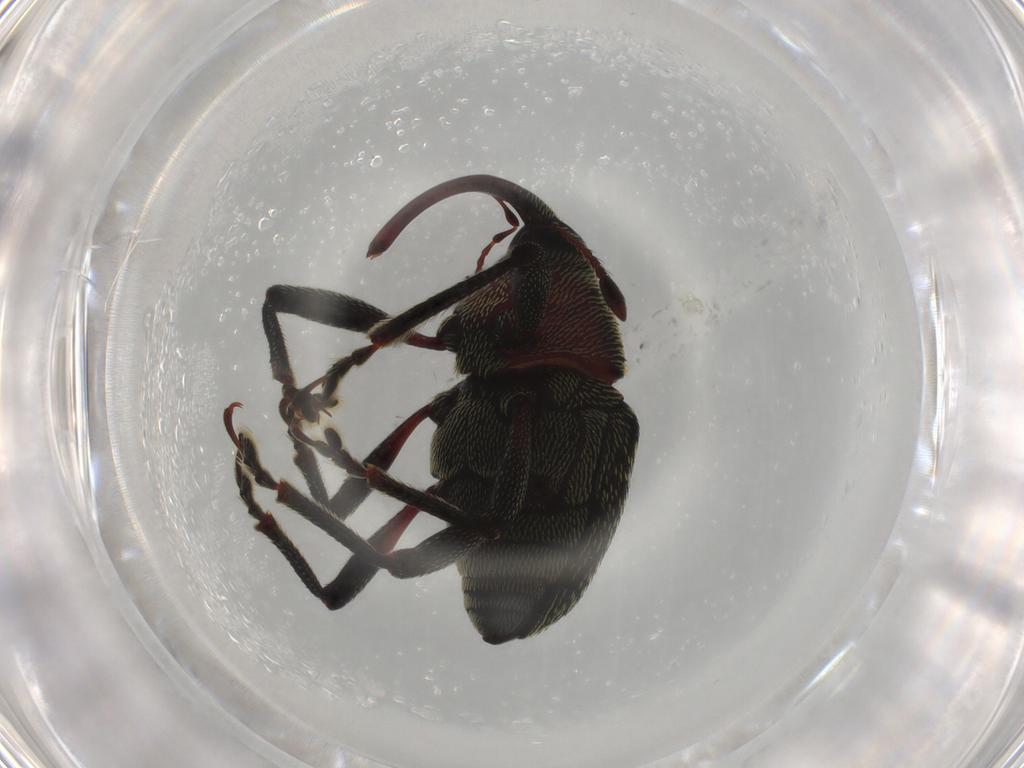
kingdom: Animalia
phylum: Arthropoda
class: Insecta
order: Coleoptera
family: Curculionidae
